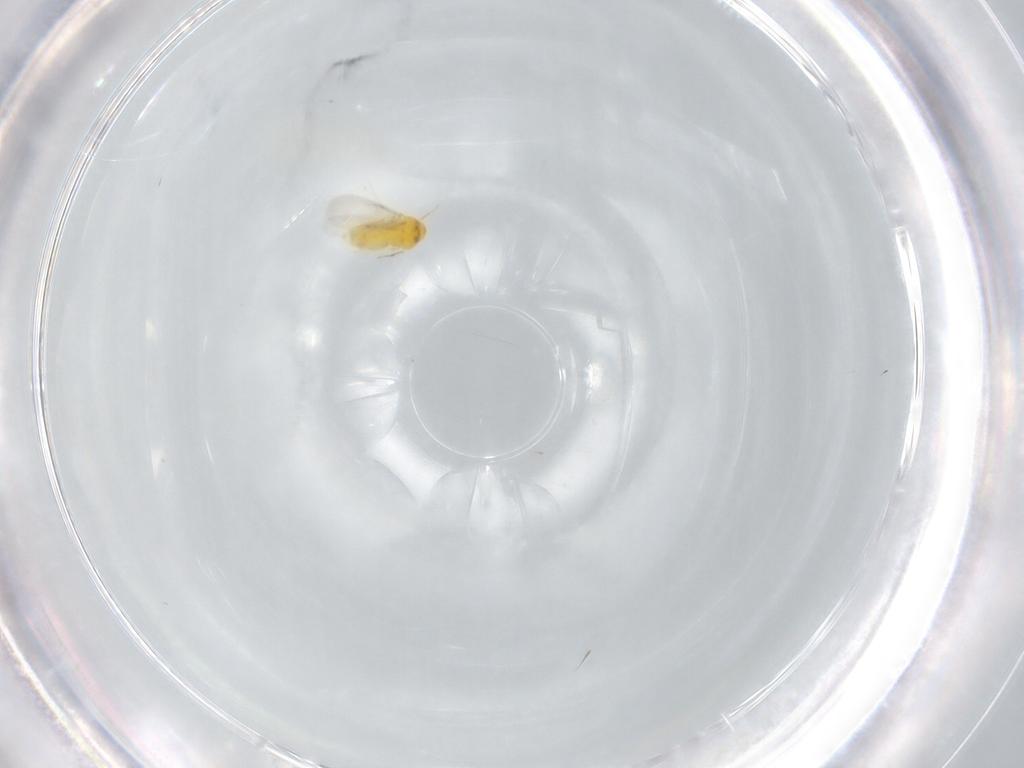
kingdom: Animalia
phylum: Arthropoda
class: Insecta
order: Hemiptera
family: Aleyrodidae
